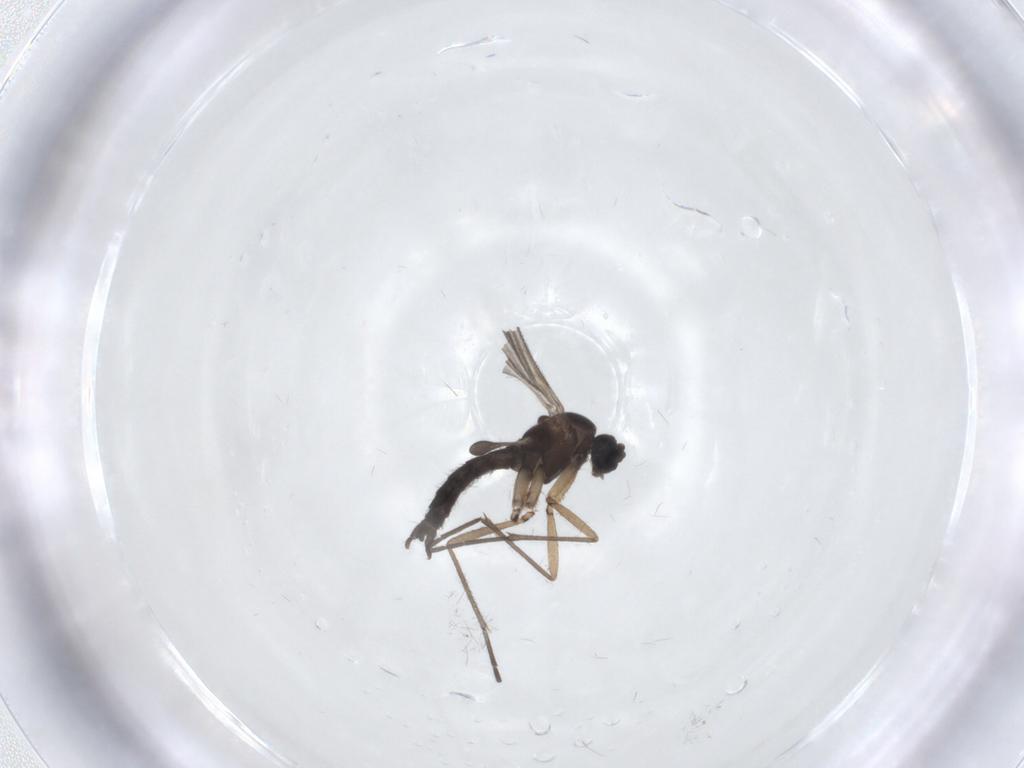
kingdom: Animalia
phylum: Arthropoda
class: Insecta
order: Diptera
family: Sciaridae
